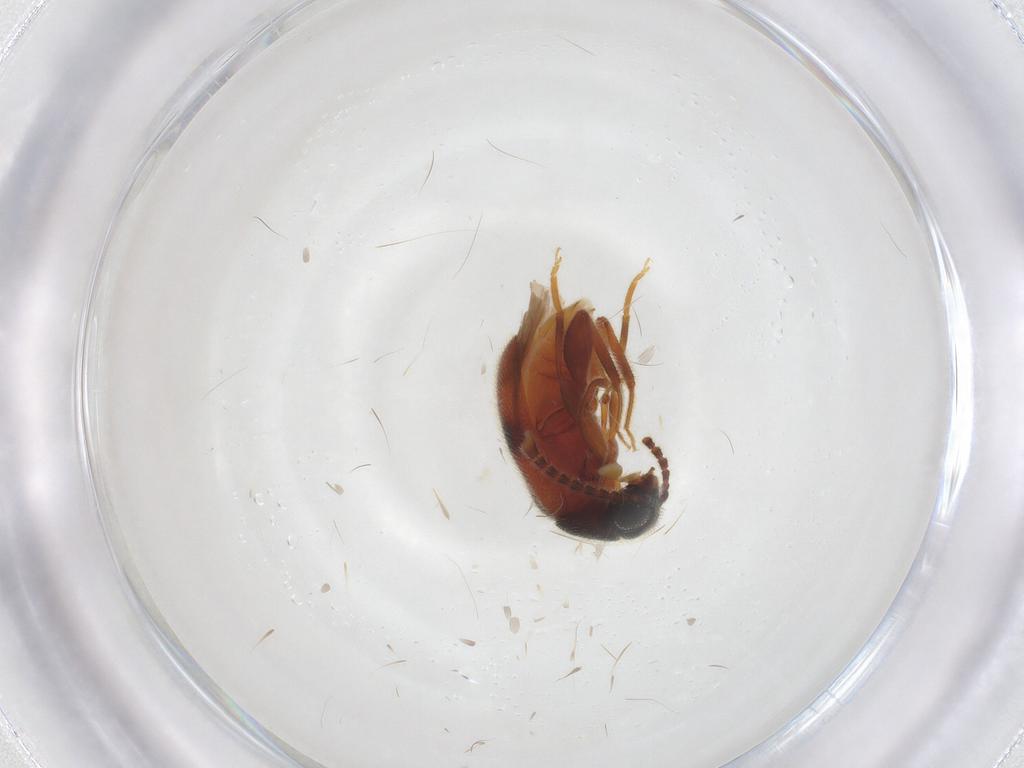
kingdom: Animalia
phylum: Arthropoda
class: Insecta
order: Coleoptera
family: Aderidae
